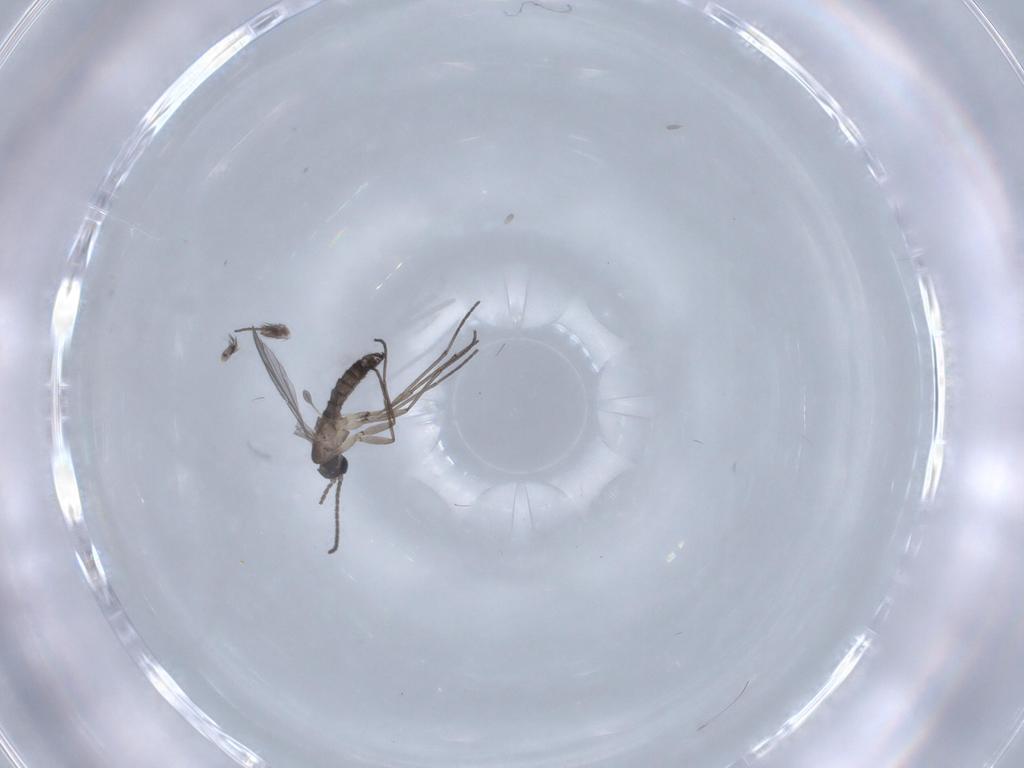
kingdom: Animalia
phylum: Arthropoda
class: Insecta
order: Diptera
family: Sciaridae
